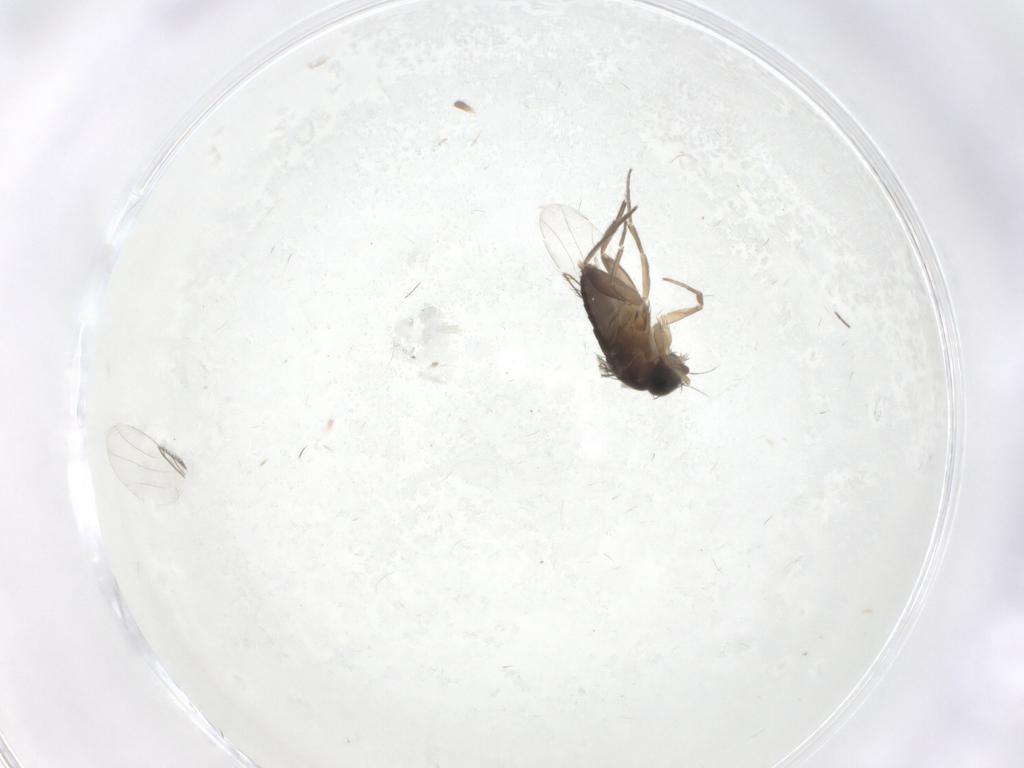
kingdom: Animalia
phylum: Arthropoda
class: Insecta
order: Diptera
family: Phoridae
